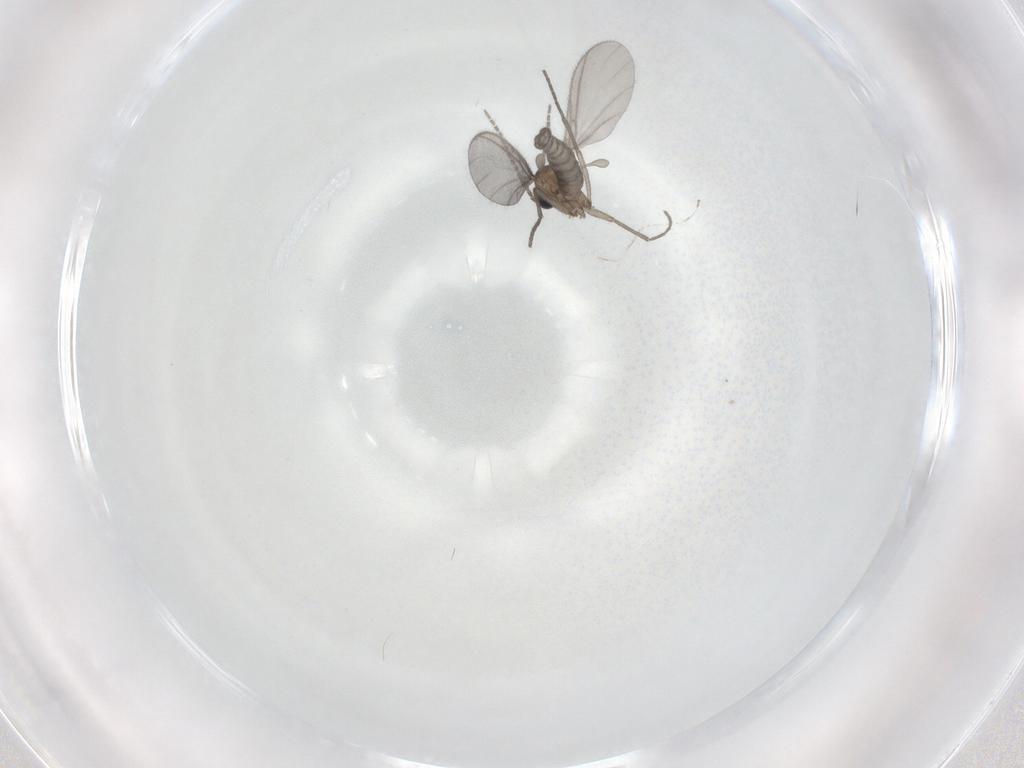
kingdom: Animalia
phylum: Arthropoda
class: Insecta
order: Diptera
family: Sciaridae
